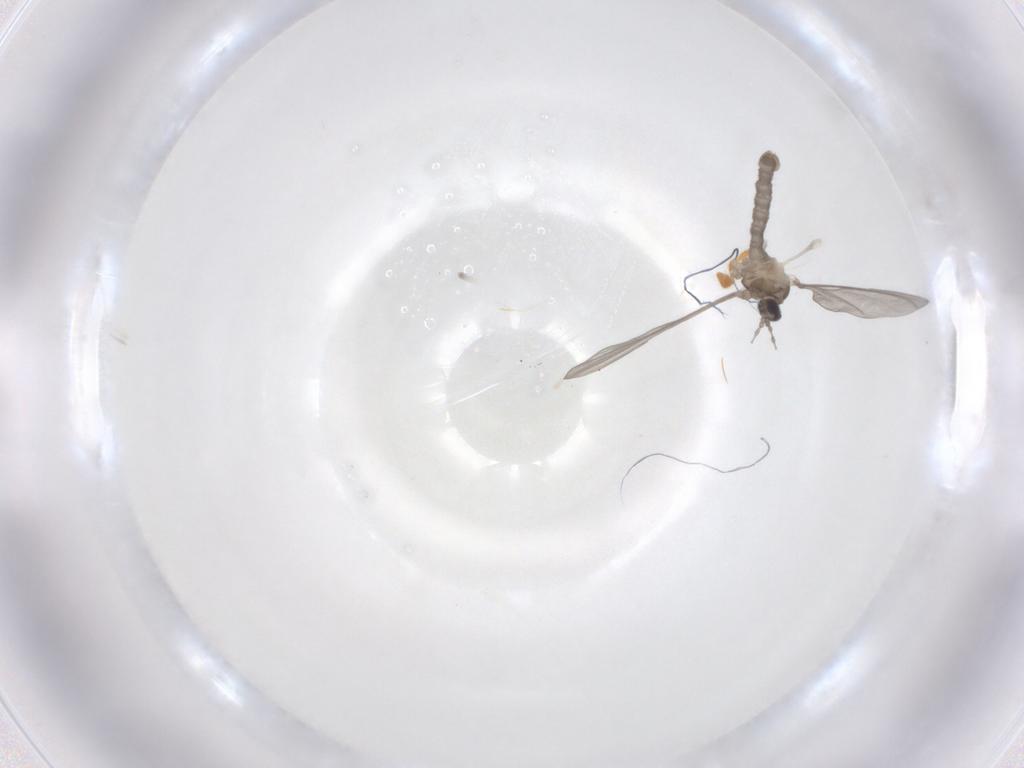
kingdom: Animalia
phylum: Arthropoda
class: Insecta
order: Diptera
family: Cecidomyiidae
